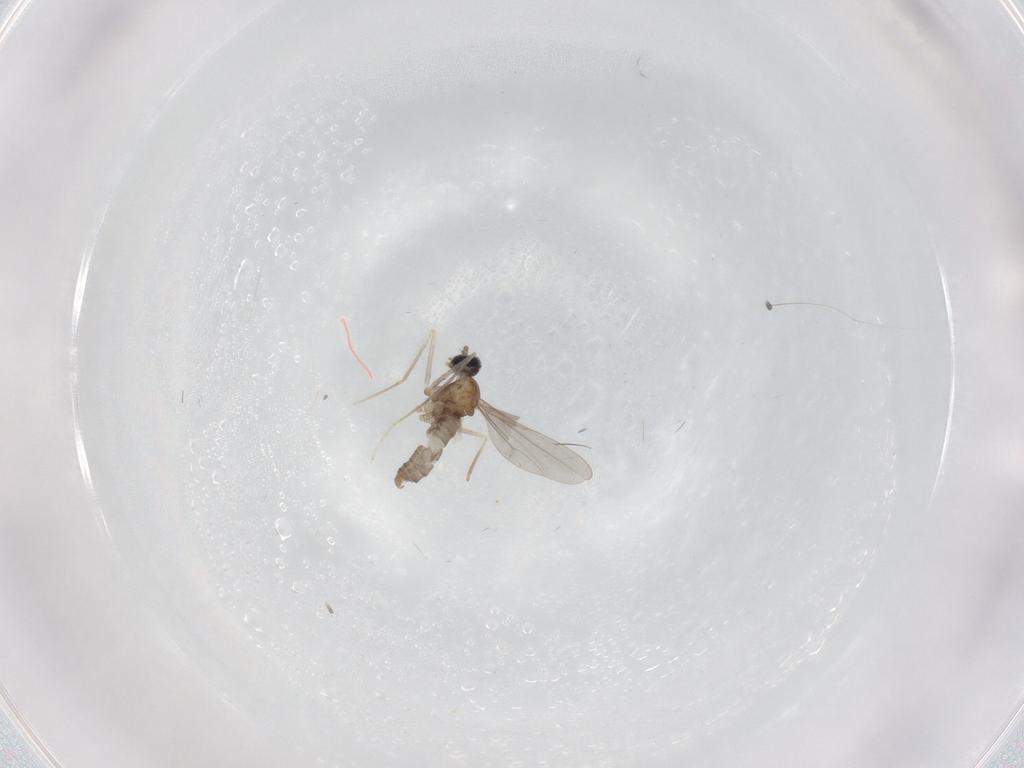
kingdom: Animalia
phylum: Arthropoda
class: Insecta
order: Diptera
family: Cecidomyiidae
